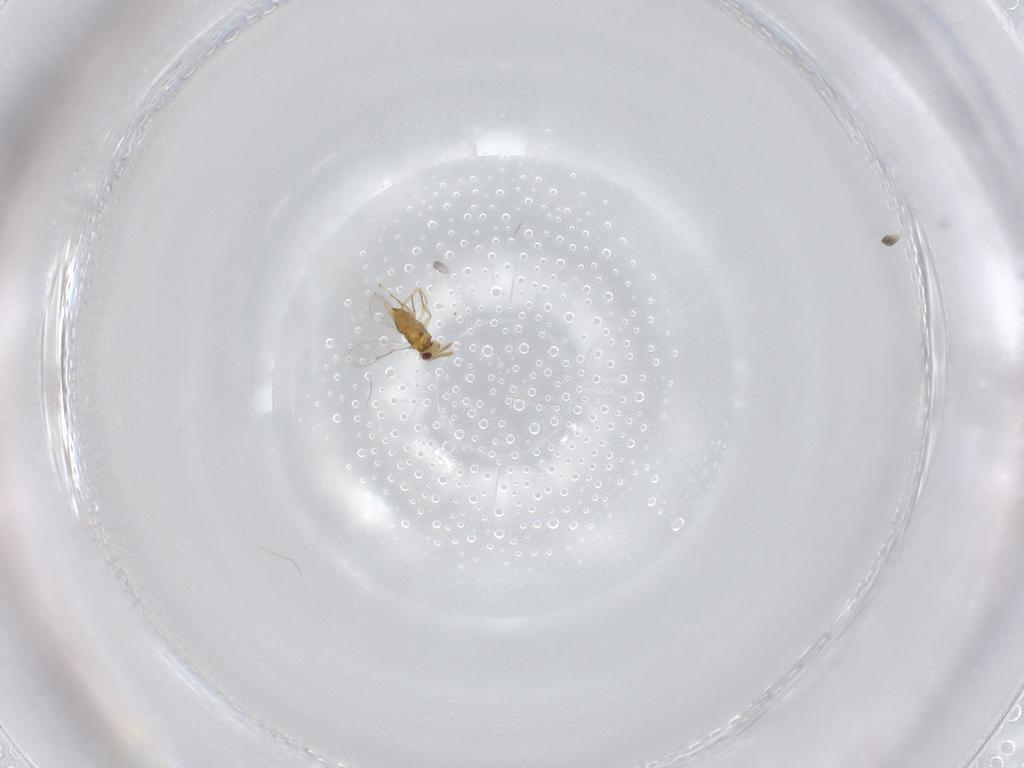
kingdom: Animalia
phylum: Arthropoda
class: Insecta
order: Hymenoptera
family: Aphelinidae
